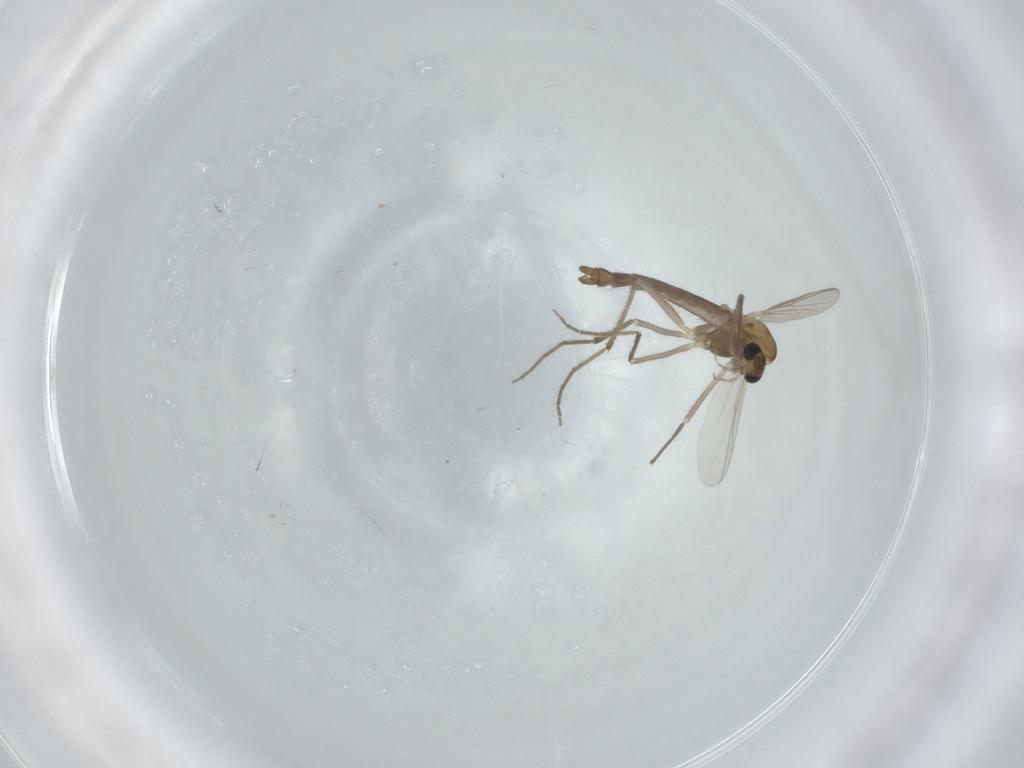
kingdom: Animalia
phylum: Arthropoda
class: Insecta
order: Diptera
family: Chironomidae
